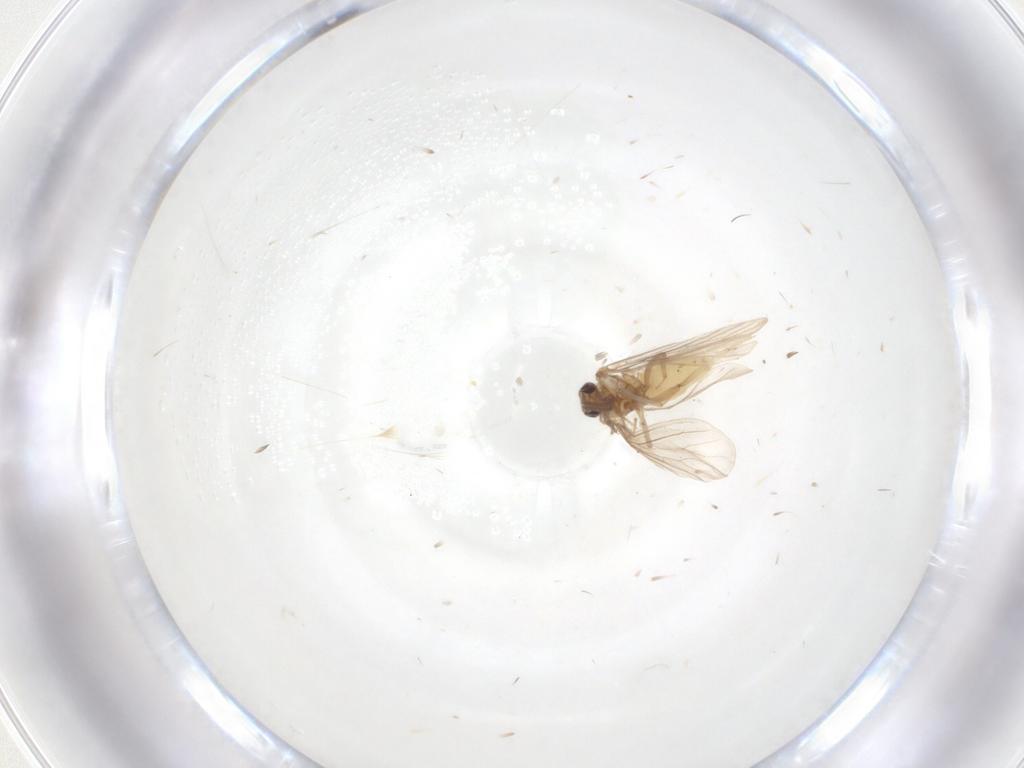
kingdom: Animalia
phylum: Arthropoda
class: Insecta
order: Neuroptera
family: Coniopterygidae
